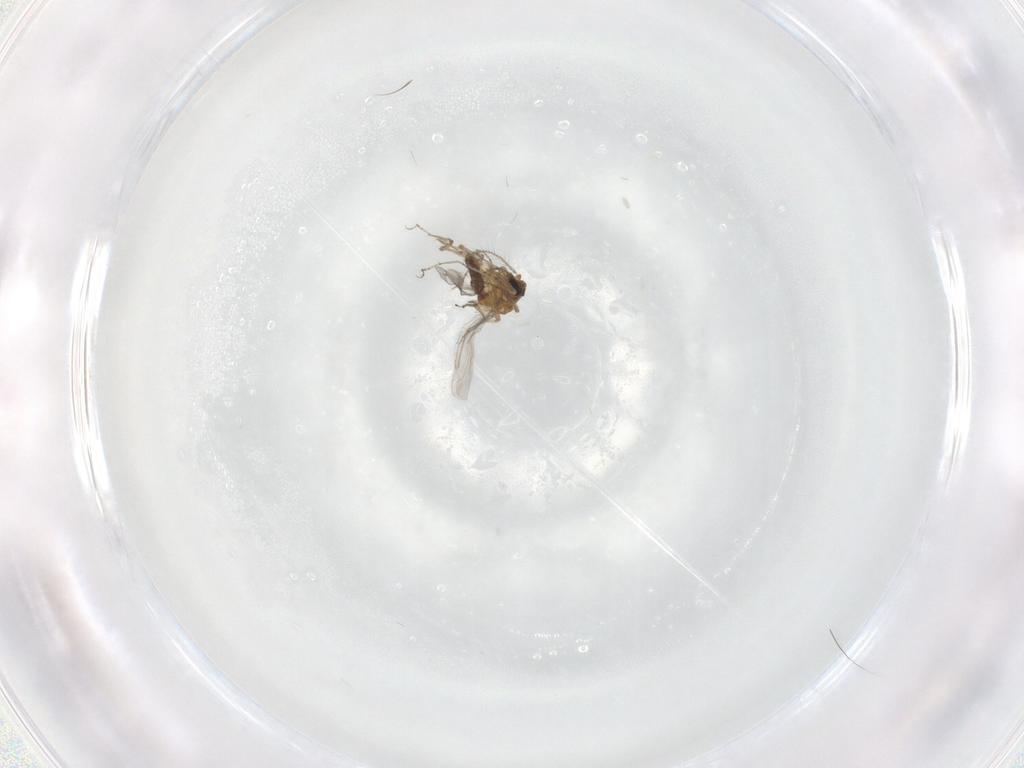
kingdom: Animalia
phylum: Arthropoda
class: Insecta
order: Diptera
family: Ceratopogonidae
